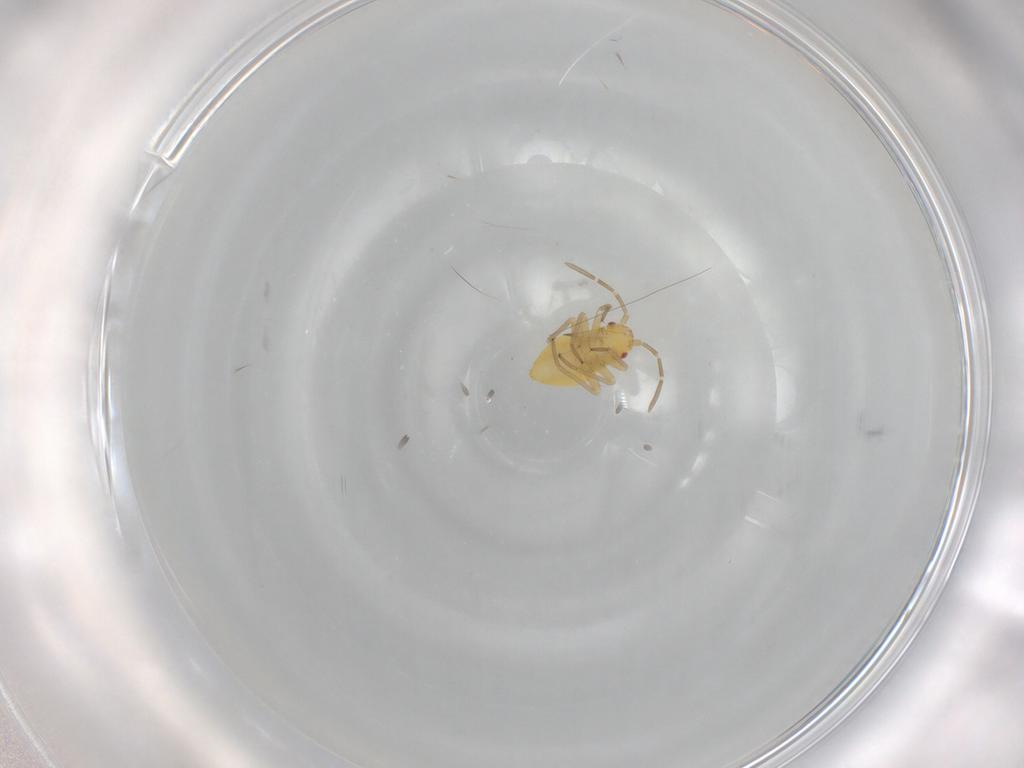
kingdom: Animalia
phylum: Arthropoda
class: Insecta
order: Hemiptera
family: Miridae
